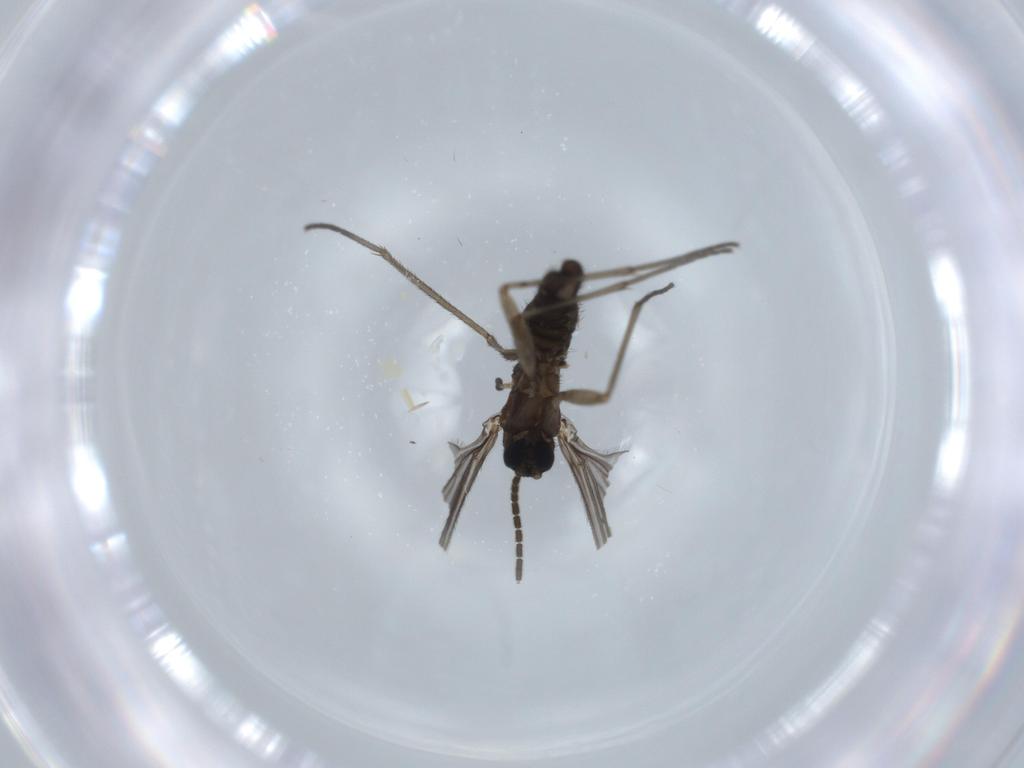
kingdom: Animalia
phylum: Arthropoda
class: Insecta
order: Diptera
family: Sciaridae
